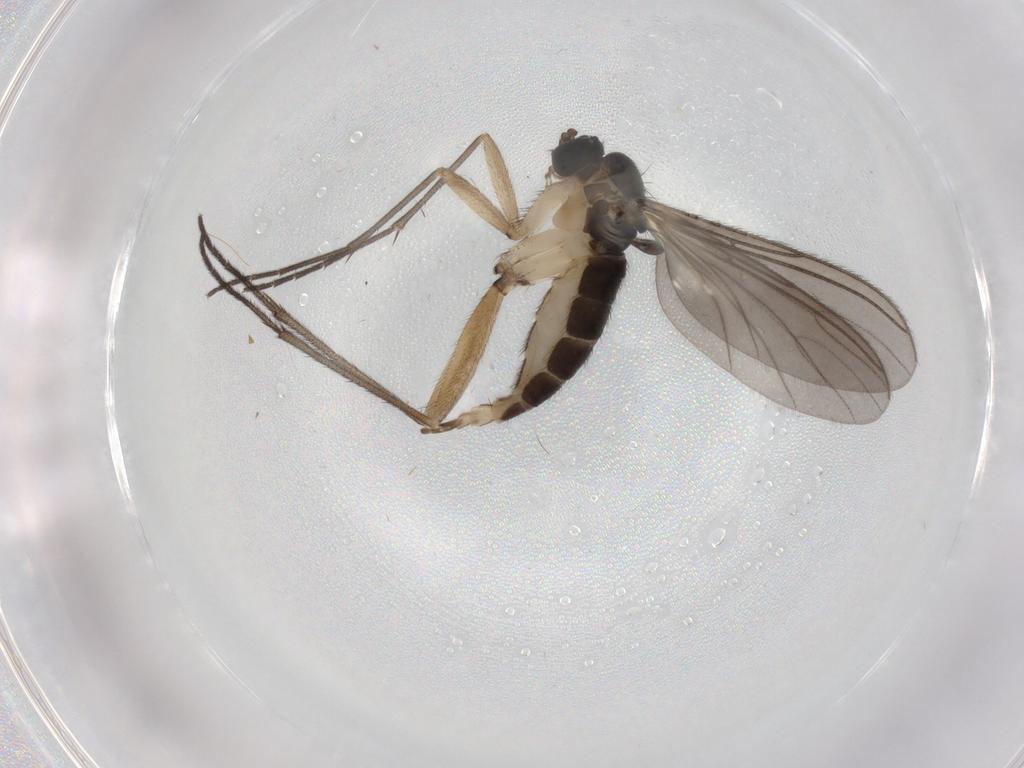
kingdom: Animalia
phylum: Arthropoda
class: Insecta
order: Diptera
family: Sciaridae
